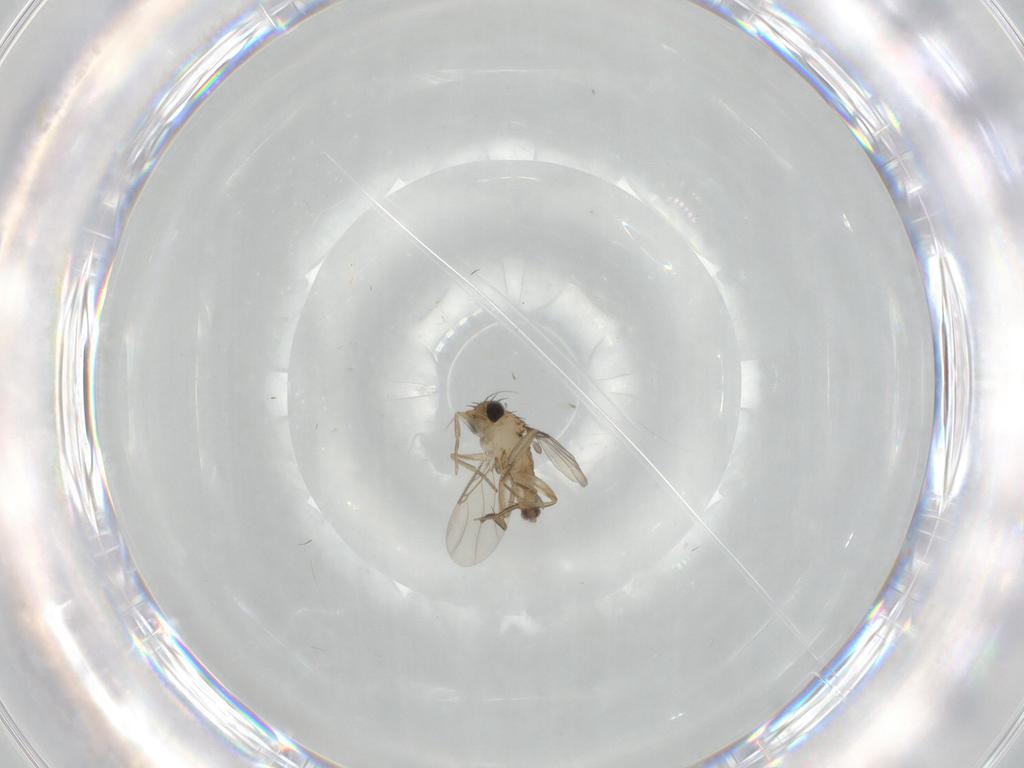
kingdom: Animalia
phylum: Arthropoda
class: Insecta
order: Diptera
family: Phoridae
